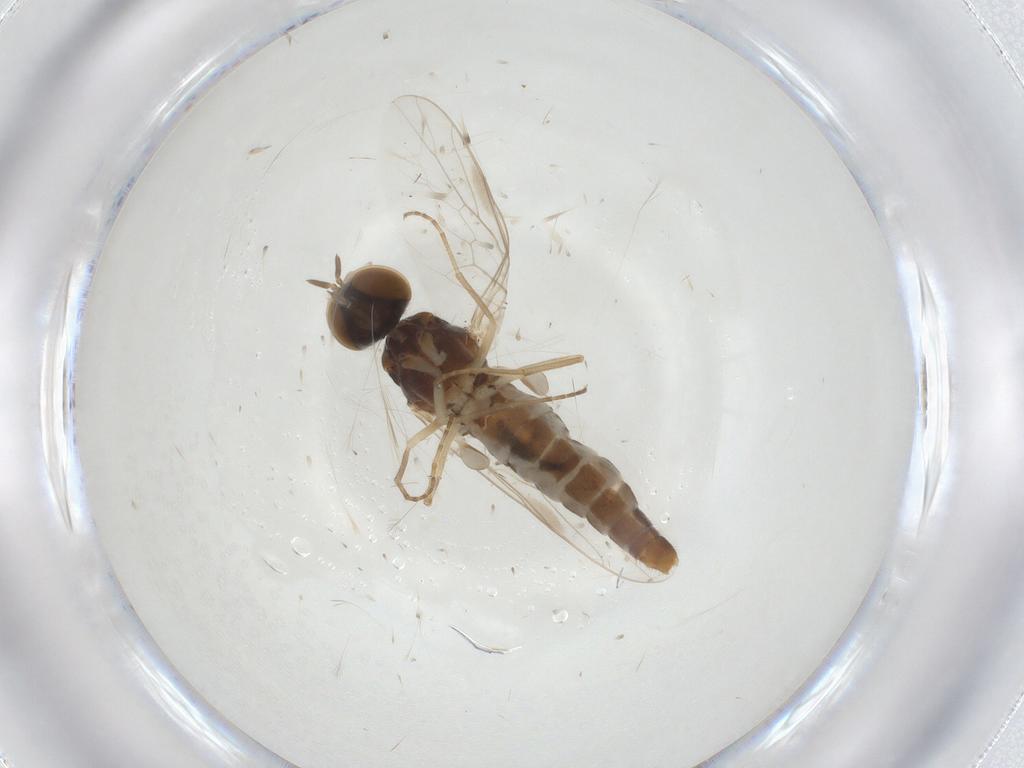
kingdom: Animalia
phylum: Arthropoda
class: Insecta
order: Diptera
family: Scenopinidae
